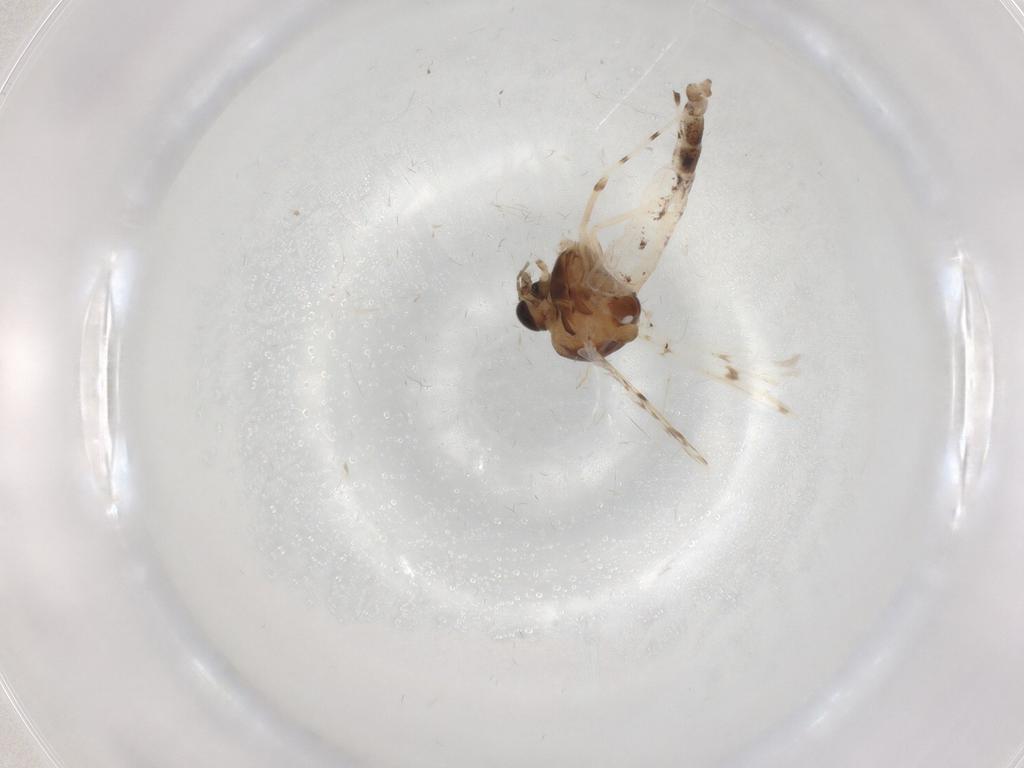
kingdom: Animalia
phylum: Arthropoda
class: Insecta
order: Diptera
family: Chironomidae
